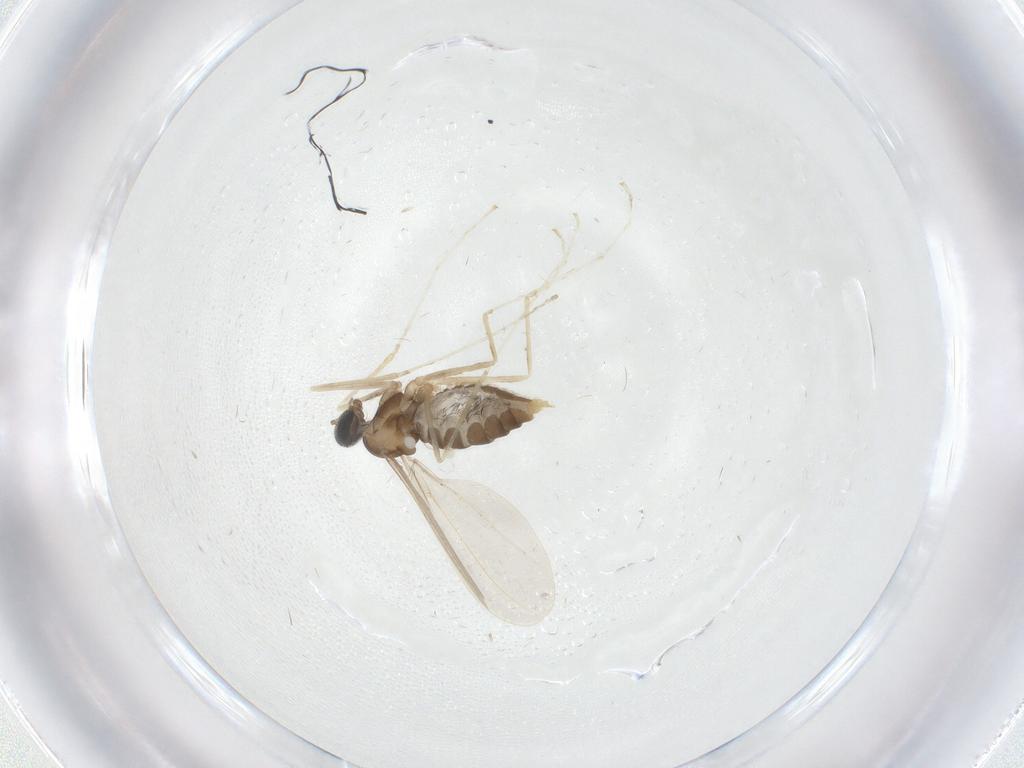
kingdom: Animalia
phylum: Arthropoda
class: Insecta
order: Diptera
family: Cecidomyiidae
